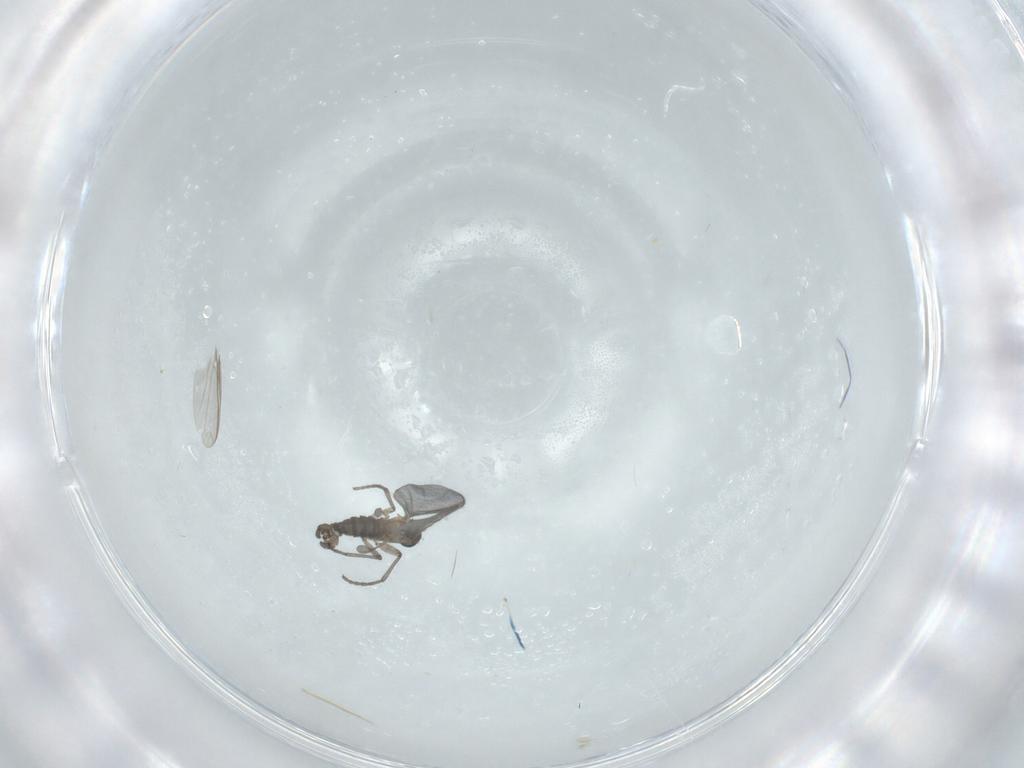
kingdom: Animalia
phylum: Arthropoda
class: Insecta
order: Diptera
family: Sciaridae
